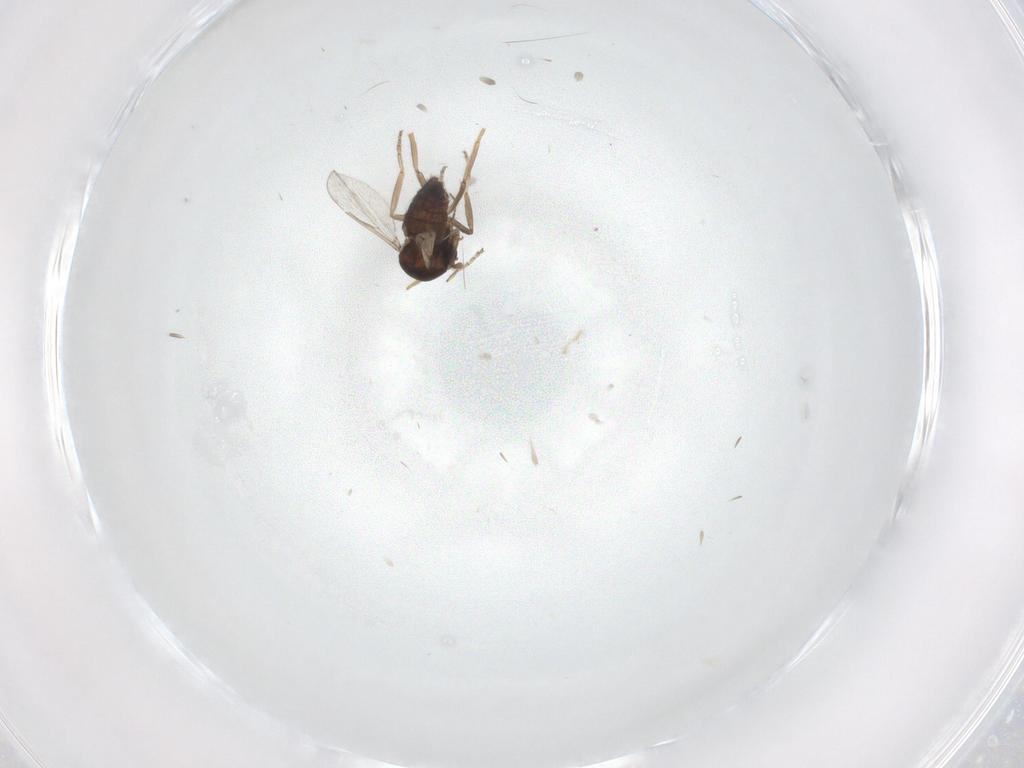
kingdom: Animalia
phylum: Arthropoda
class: Insecta
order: Diptera
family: Ceratopogonidae
